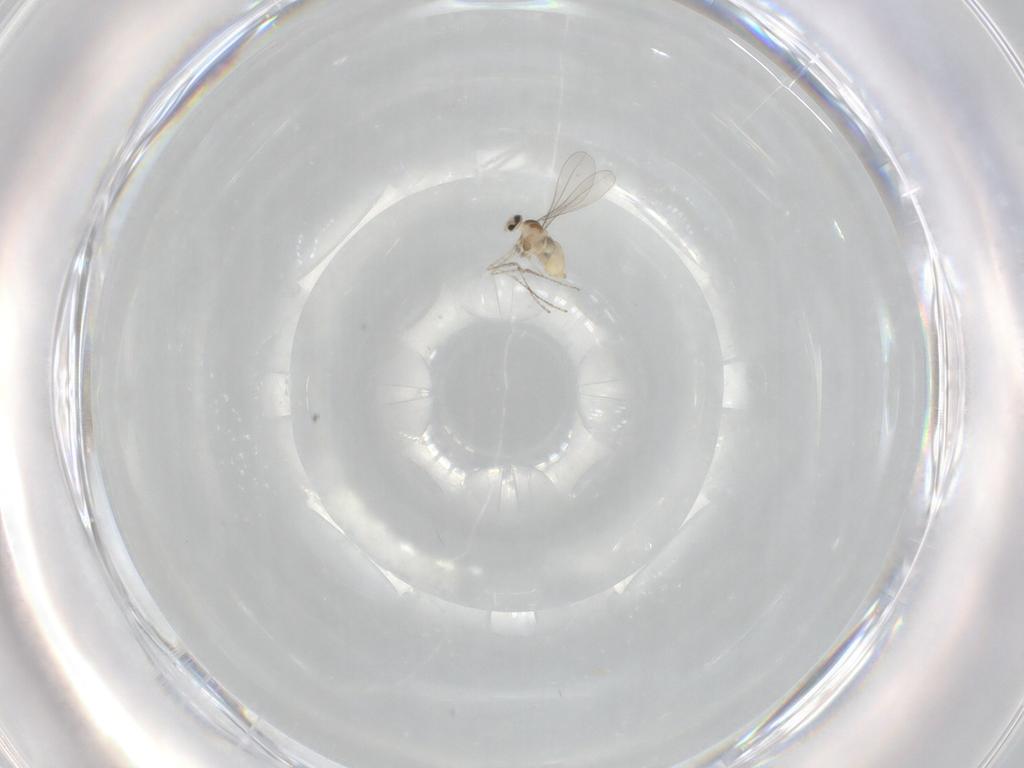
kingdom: Animalia
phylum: Arthropoda
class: Insecta
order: Diptera
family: Cecidomyiidae
